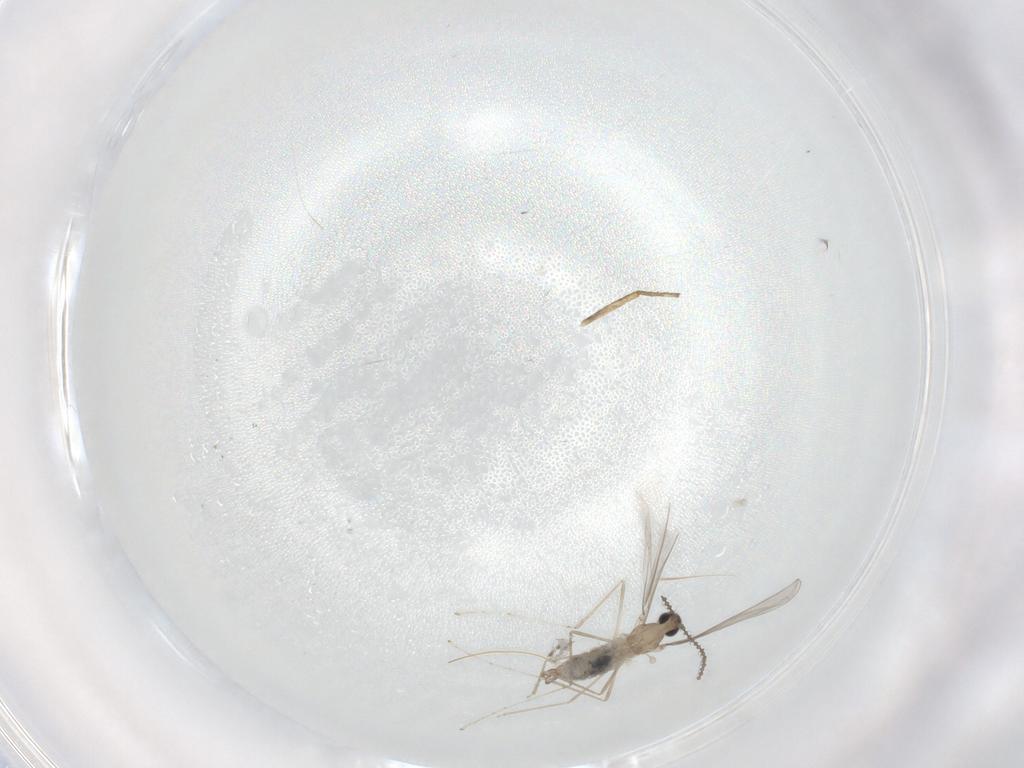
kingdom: Animalia
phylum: Arthropoda
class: Insecta
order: Diptera
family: Cecidomyiidae
